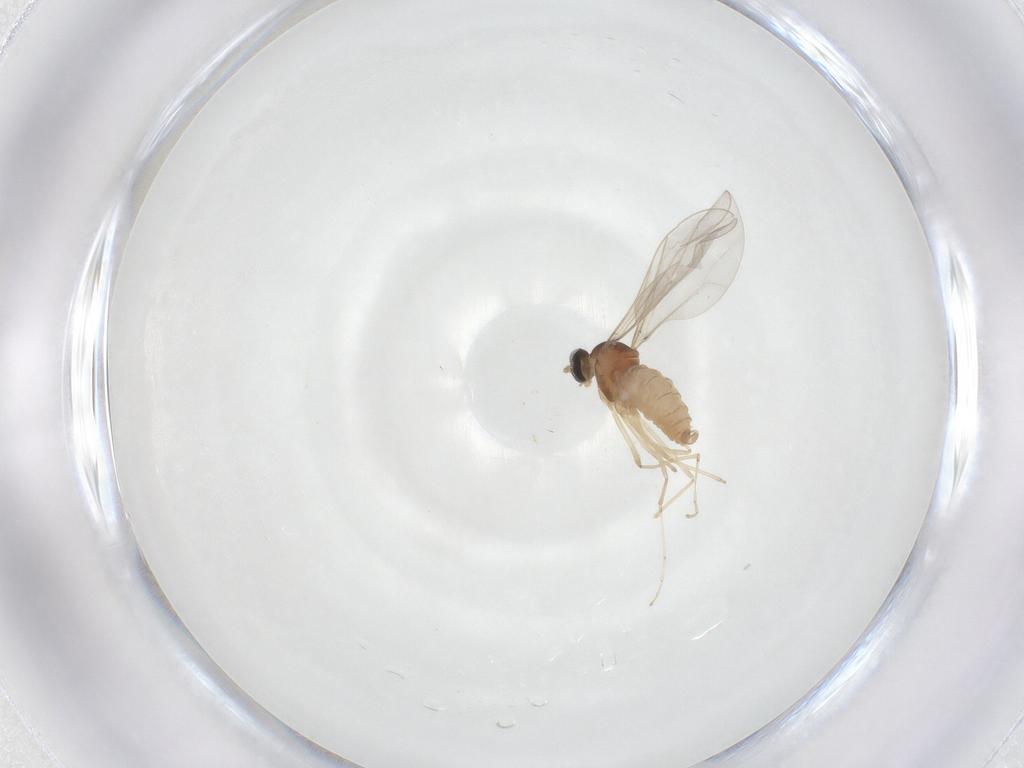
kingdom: Animalia
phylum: Arthropoda
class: Insecta
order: Diptera
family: Cecidomyiidae
